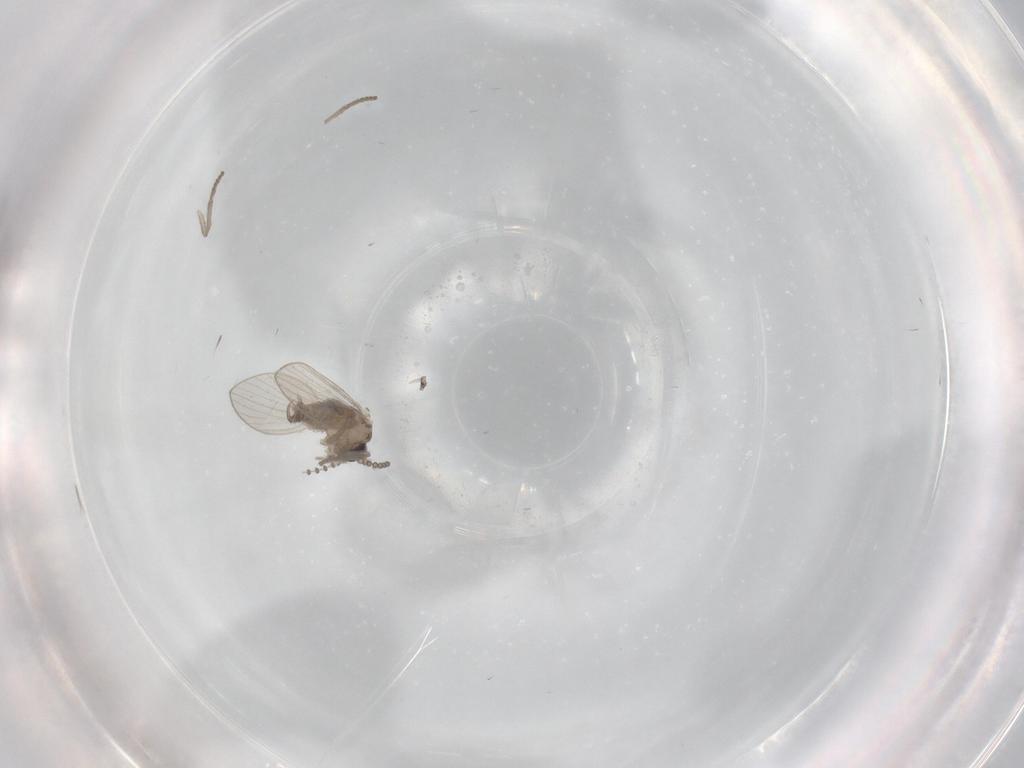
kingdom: Animalia
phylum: Arthropoda
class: Insecta
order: Diptera
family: Psychodidae
